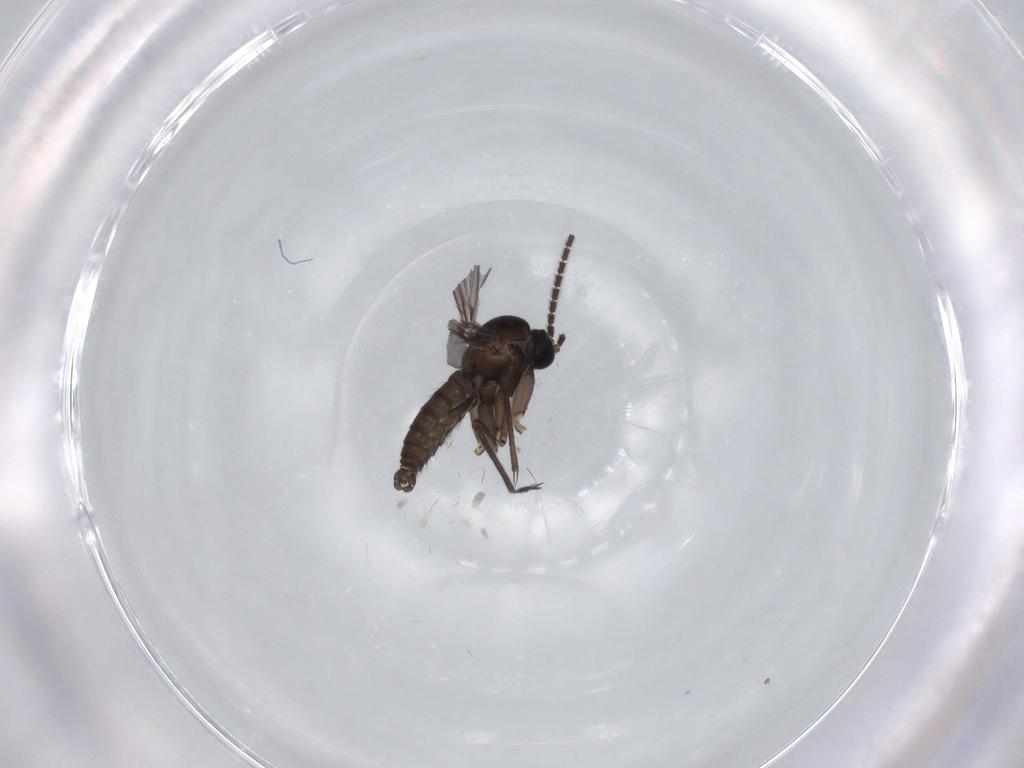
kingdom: Animalia
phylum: Arthropoda
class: Insecta
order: Diptera
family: Sciaridae
